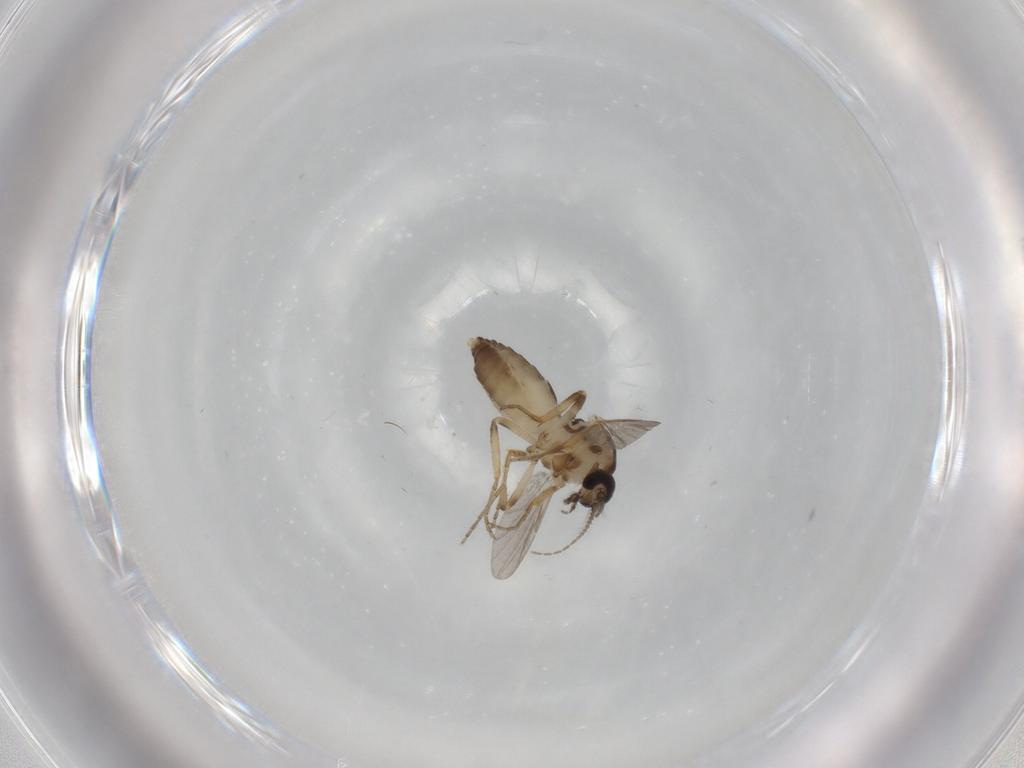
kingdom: Animalia
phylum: Arthropoda
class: Insecta
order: Diptera
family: Ceratopogonidae
